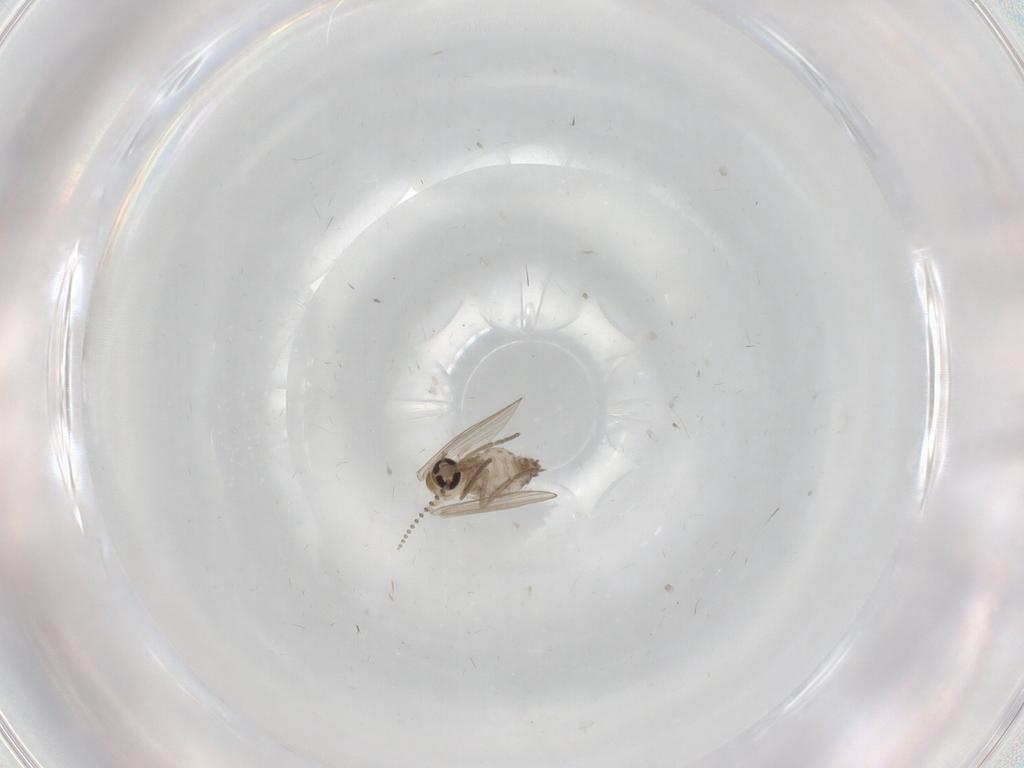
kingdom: Animalia
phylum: Arthropoda
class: Insecta
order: Diptera
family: Psychodidae
